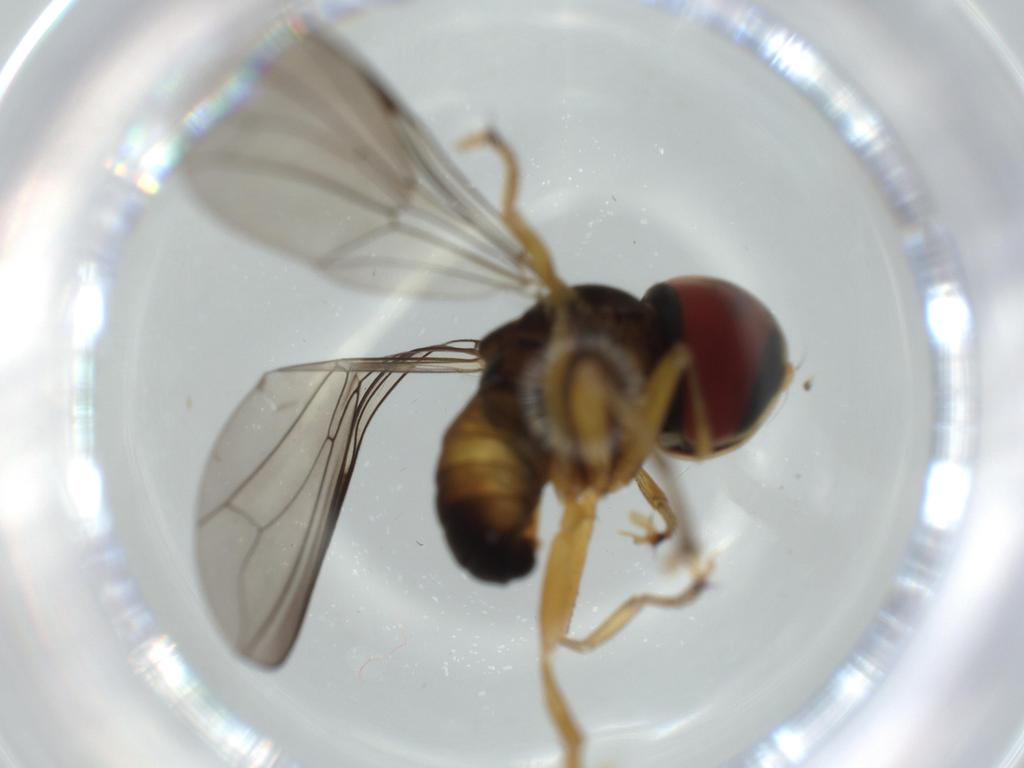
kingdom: Animalia
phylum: Arthropoda
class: Insecta
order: Diptera
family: Pipunculidae
